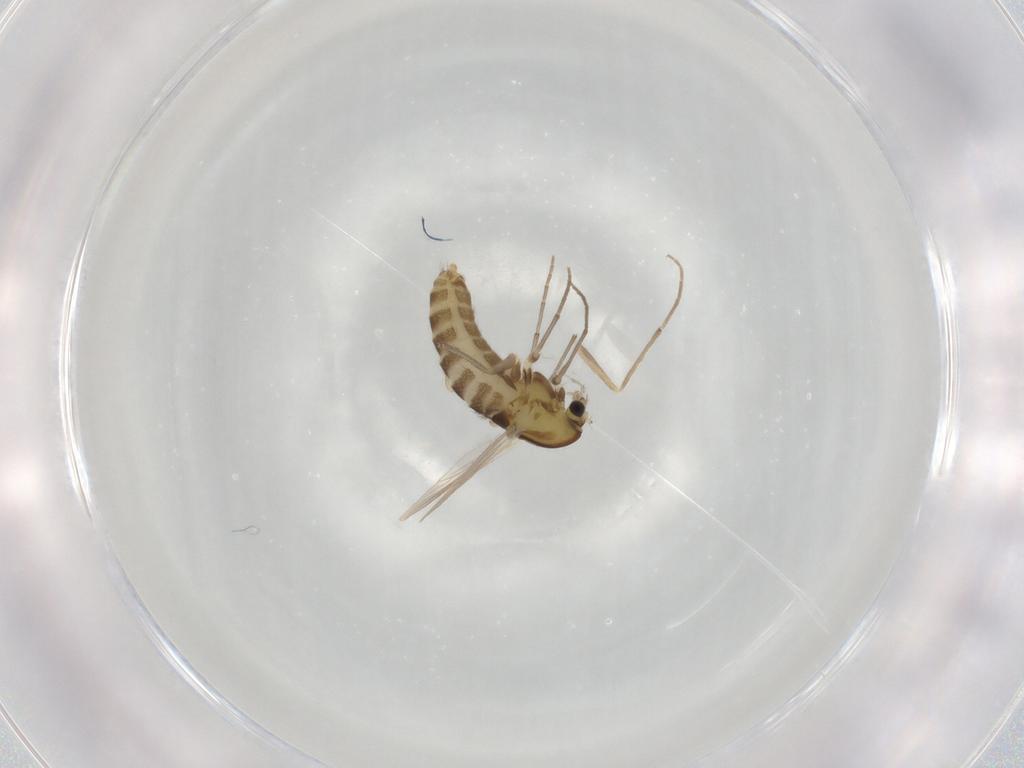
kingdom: Animalia
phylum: Arthropoda
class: Insecta
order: Diptera
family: Chironomidae
